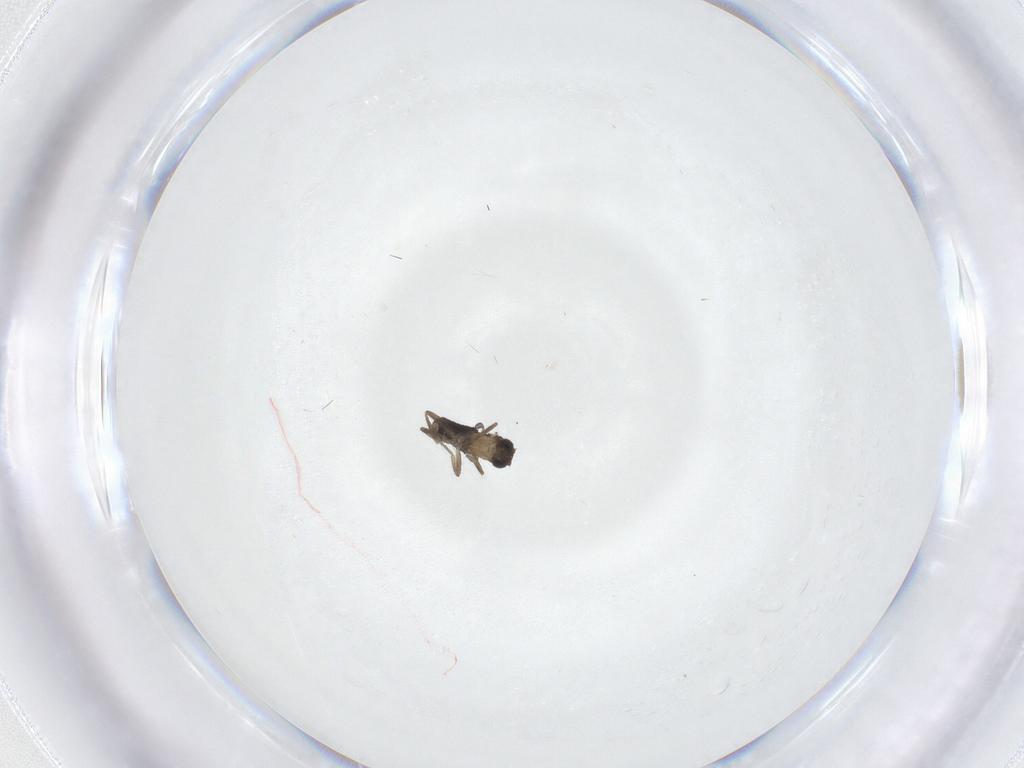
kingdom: Animalia
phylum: Arthropoda
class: Insecta
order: Diptera
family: Phoridae
